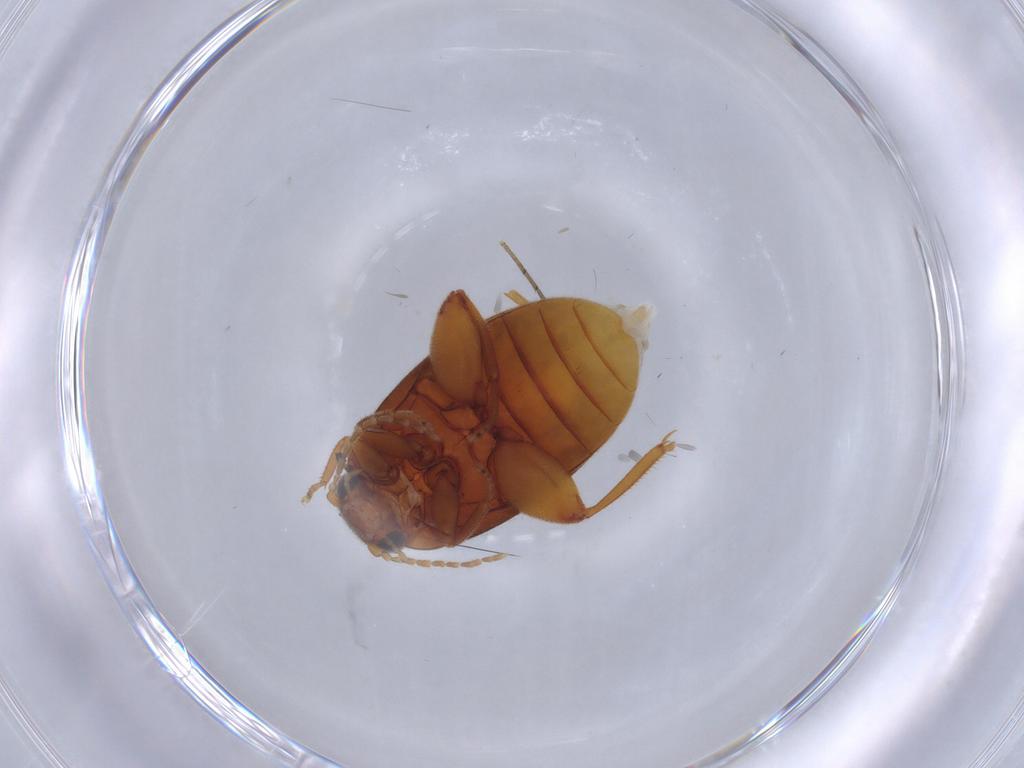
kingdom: Animalia
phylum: Arthropoda
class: Insecta
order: Coleoptera
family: Scirtidae
